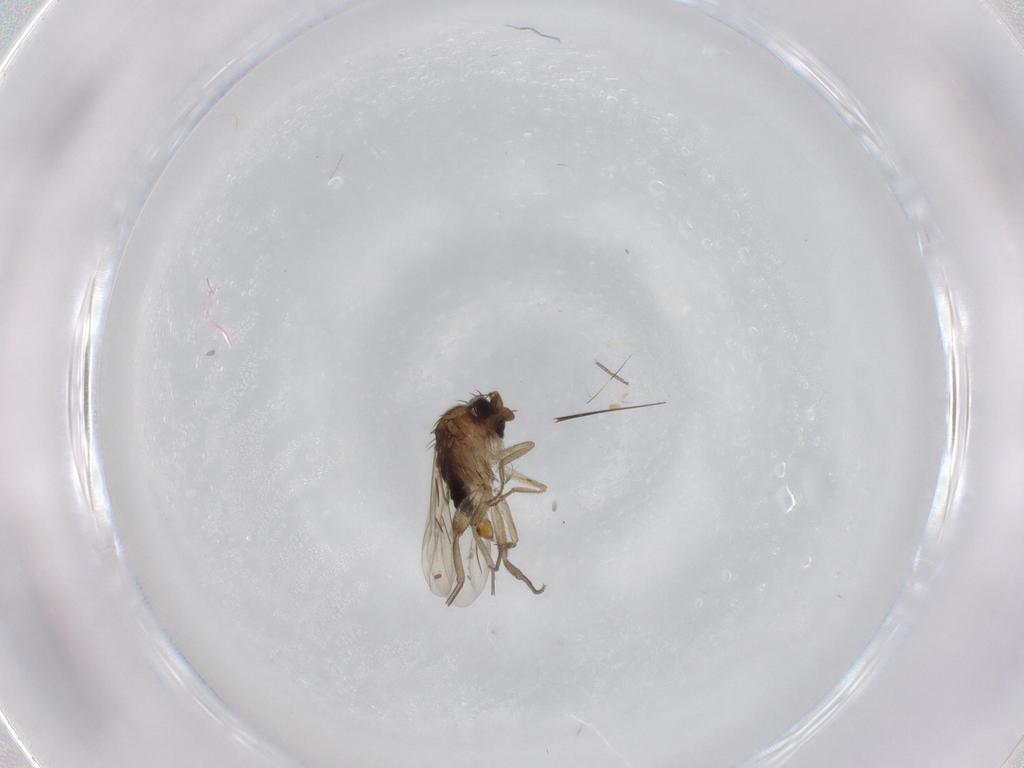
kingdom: Animalia
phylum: Arthropoda
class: Insecta
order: Diptera
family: Phoridae
